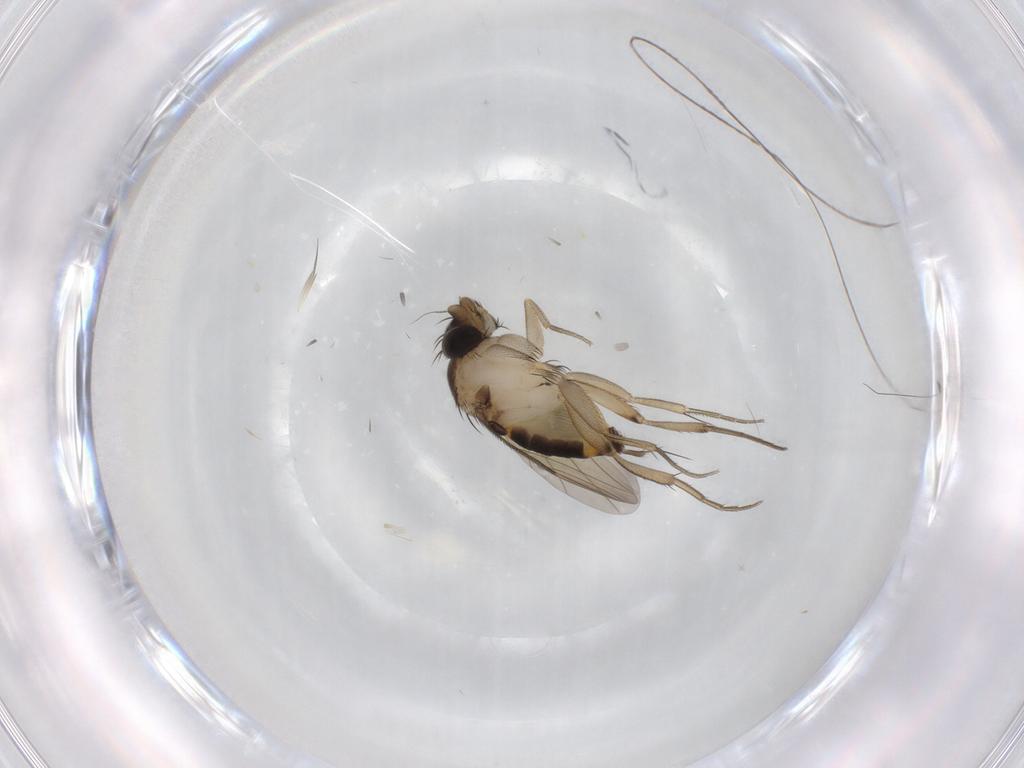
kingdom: Animalia
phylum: Arthropoda
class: Insecta
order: Diptera
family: Phoridae
